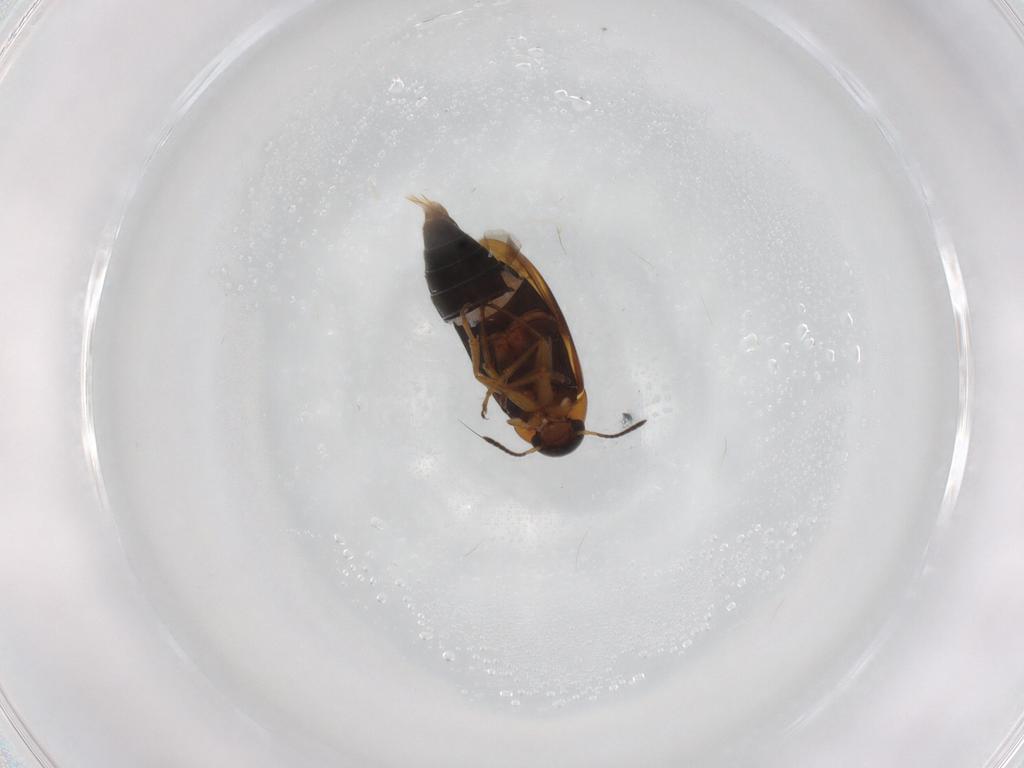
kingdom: Animalia
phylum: Arthropoda
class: Insecta
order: Coleoptera
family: Scraptiidae
